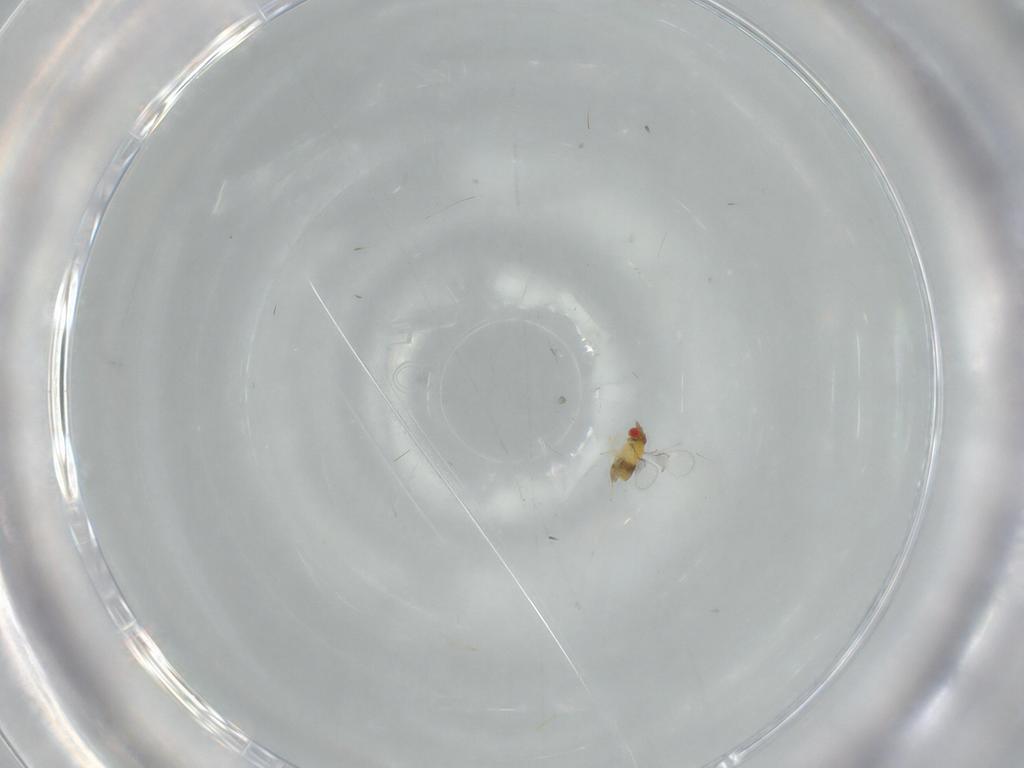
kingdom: Animalia
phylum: Arthropoda
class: Insecta
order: Hymenoptera
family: Trichogrammatidae
